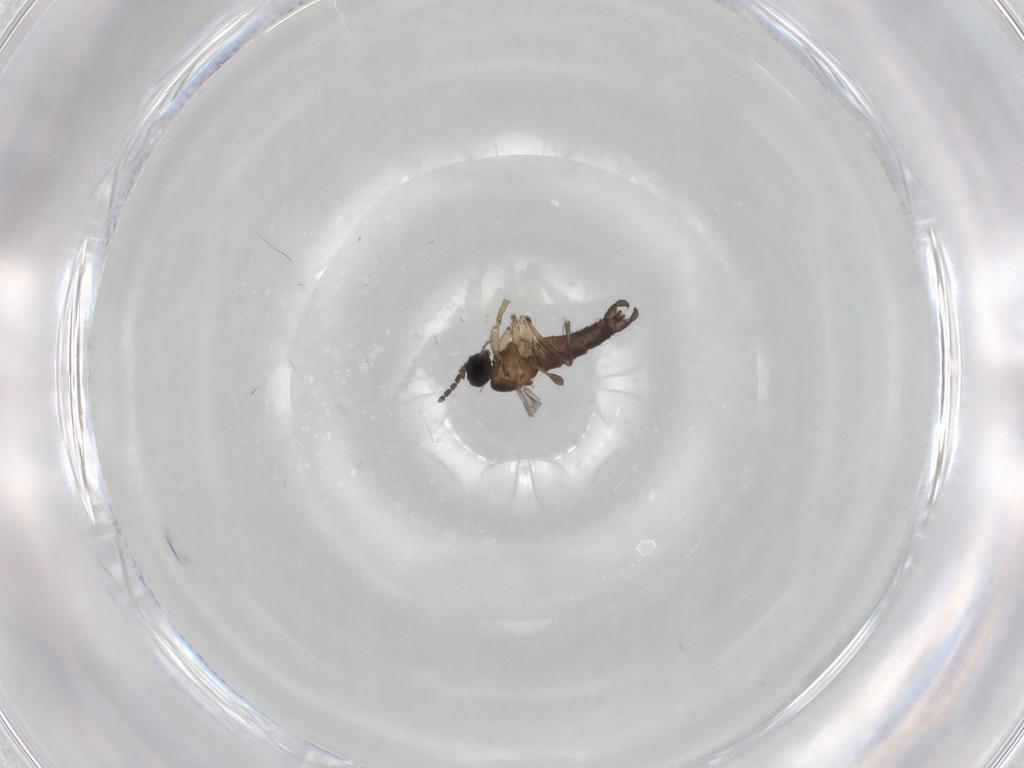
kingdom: Animalia
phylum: Arthropoda
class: Insecta
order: Diptera
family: Sciaridae
